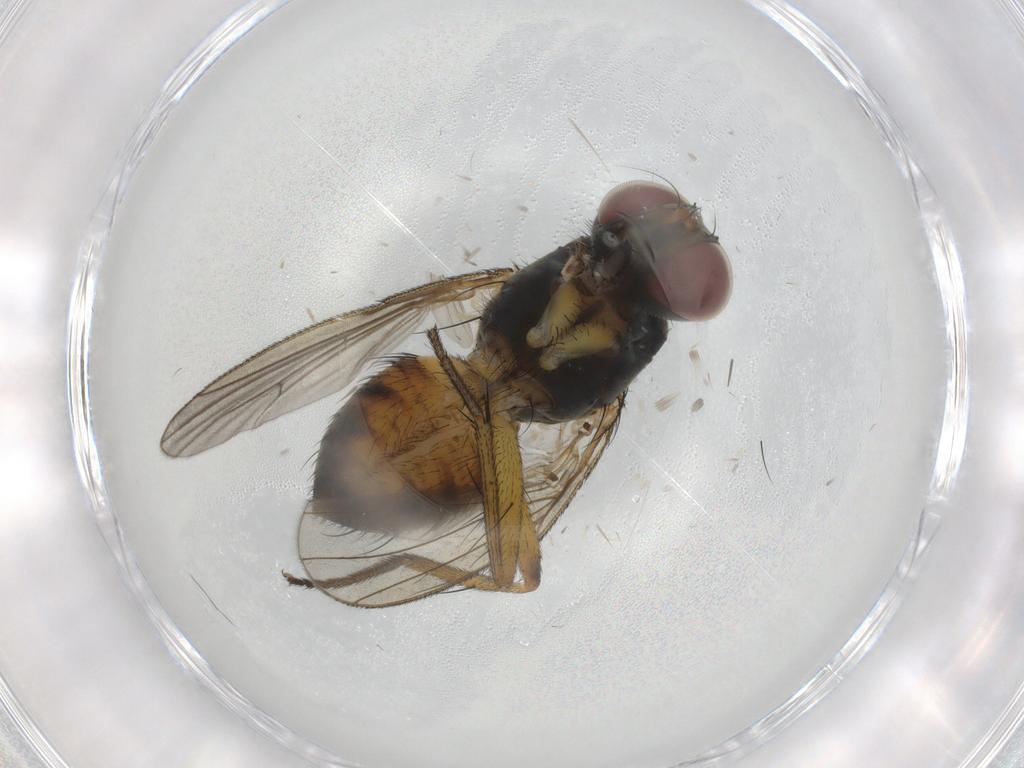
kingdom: Animalia
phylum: Arthropoda
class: Insecta
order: Diptera
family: Muscidae
